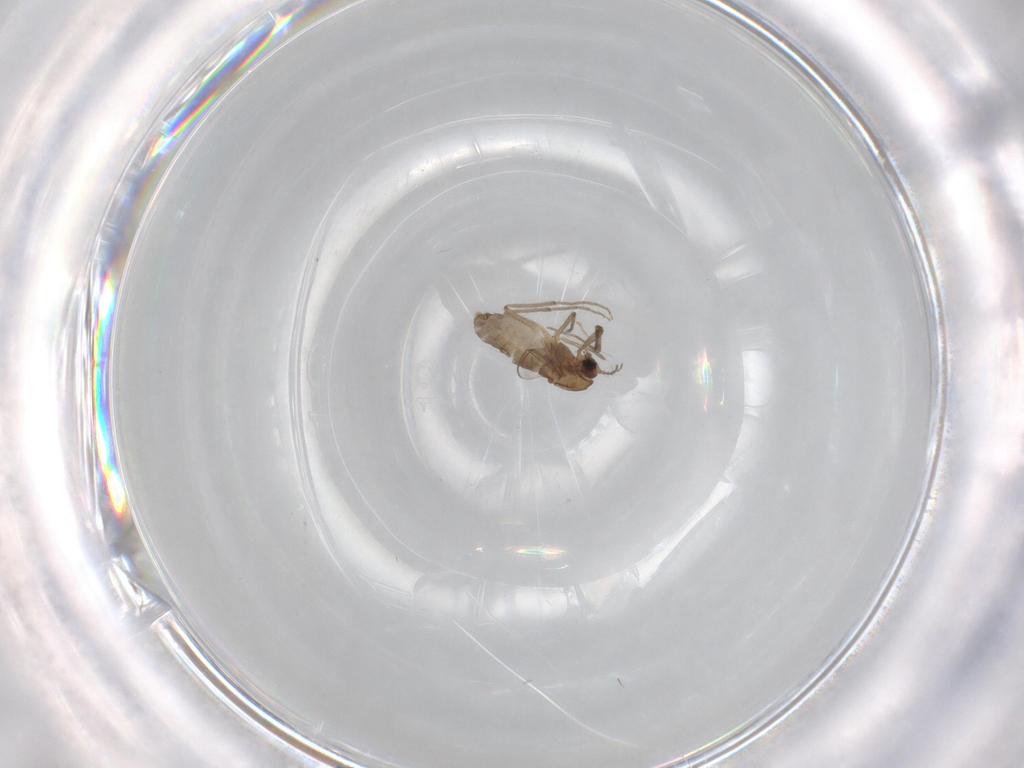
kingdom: Animalia
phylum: Arthropoda
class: Insecta
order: Diptera
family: Chironomidae
